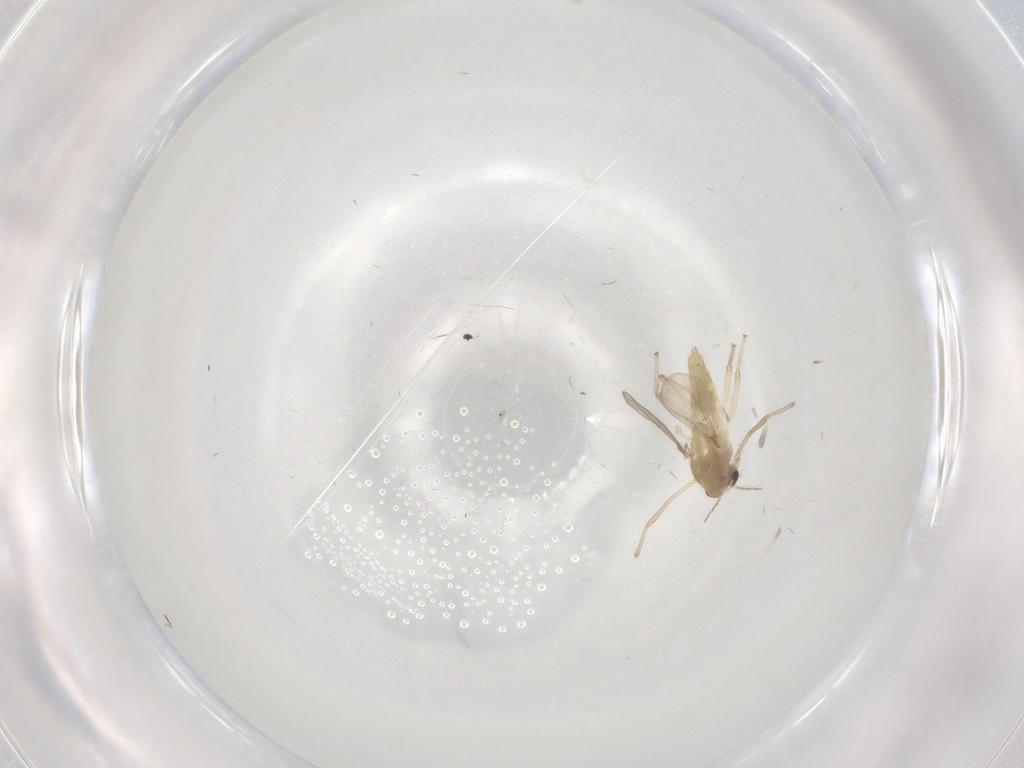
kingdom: Animalia
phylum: Arthropoda
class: Insecta
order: Diptera
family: Chironomidae
